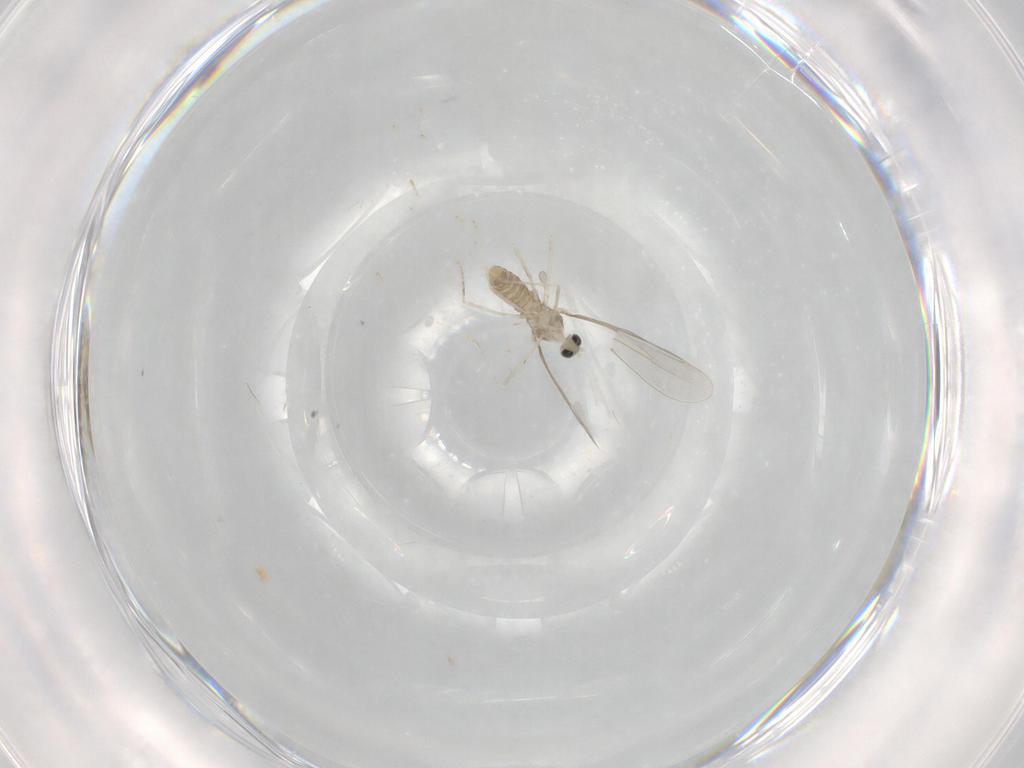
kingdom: Animalia
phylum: Arthropoda
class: Insecta
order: Diptera
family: Cecidomyiidae
